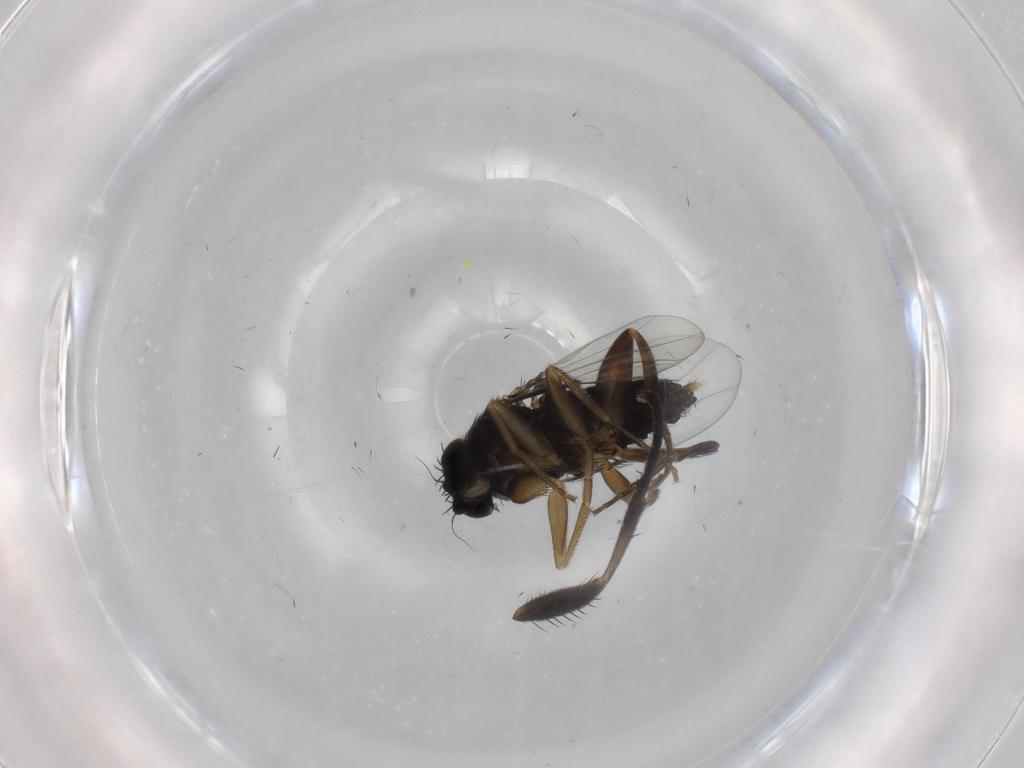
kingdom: Animalia
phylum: Arthropoda
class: Insecta
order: Diptera
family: Phoridae
